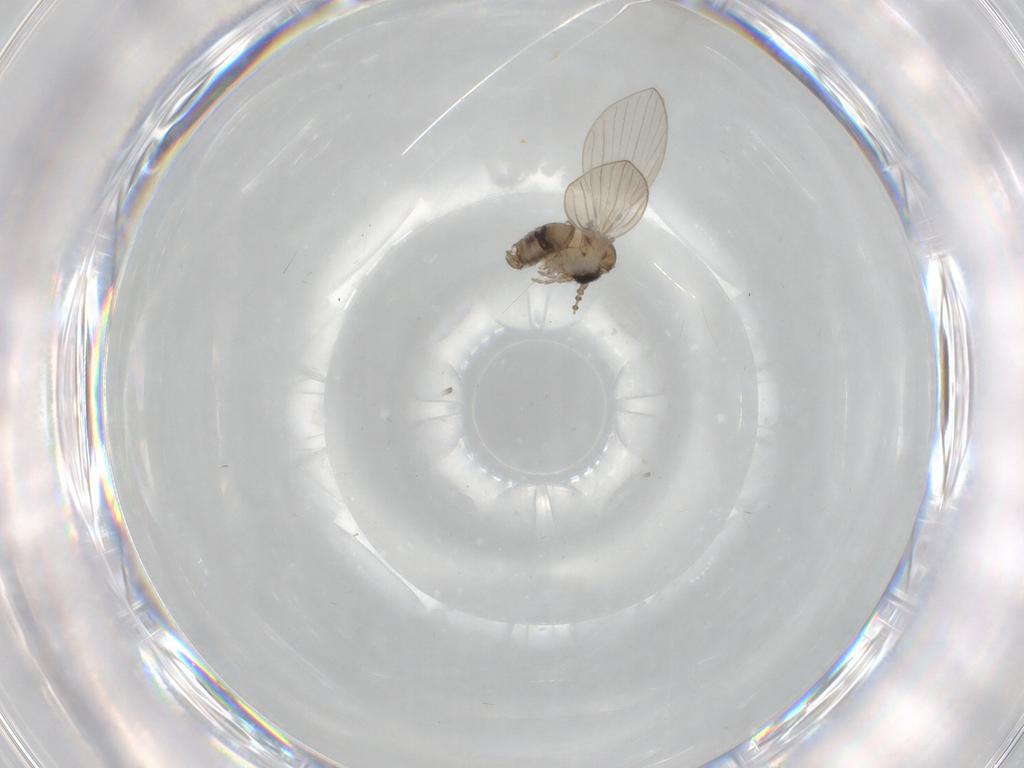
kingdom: Animalia
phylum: Arthropoda
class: Insecta
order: Diptera
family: Psychodidae
